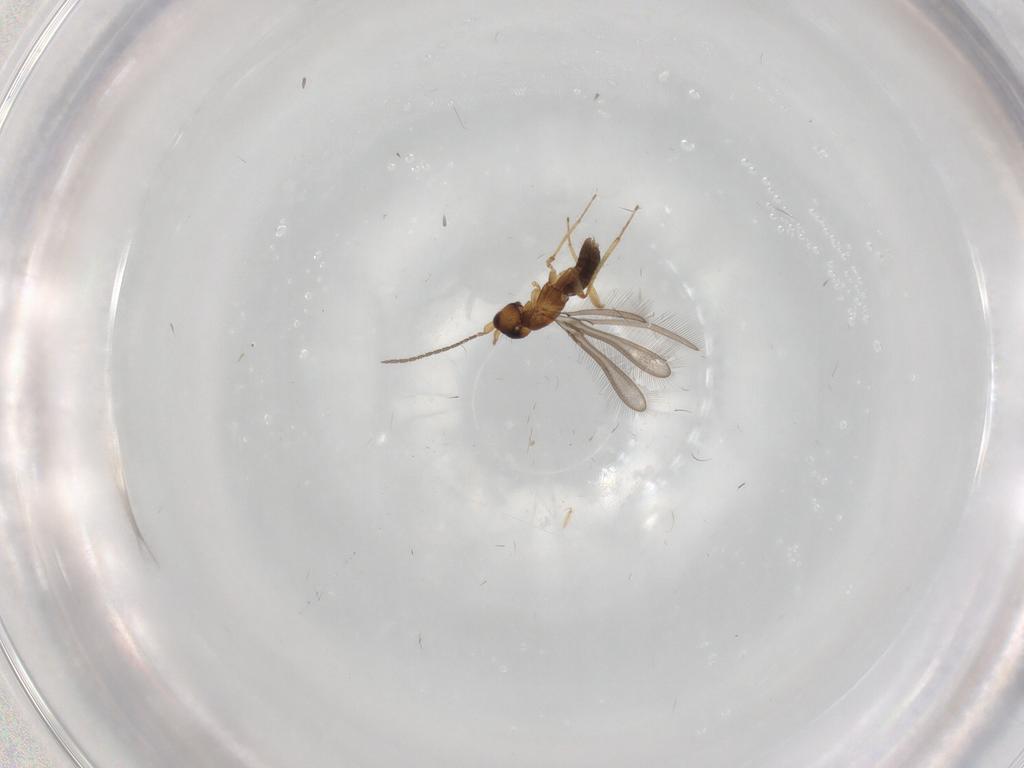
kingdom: Animalia
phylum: Arthropoda
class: Insecta
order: Hymenoptera
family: Mymaridae
